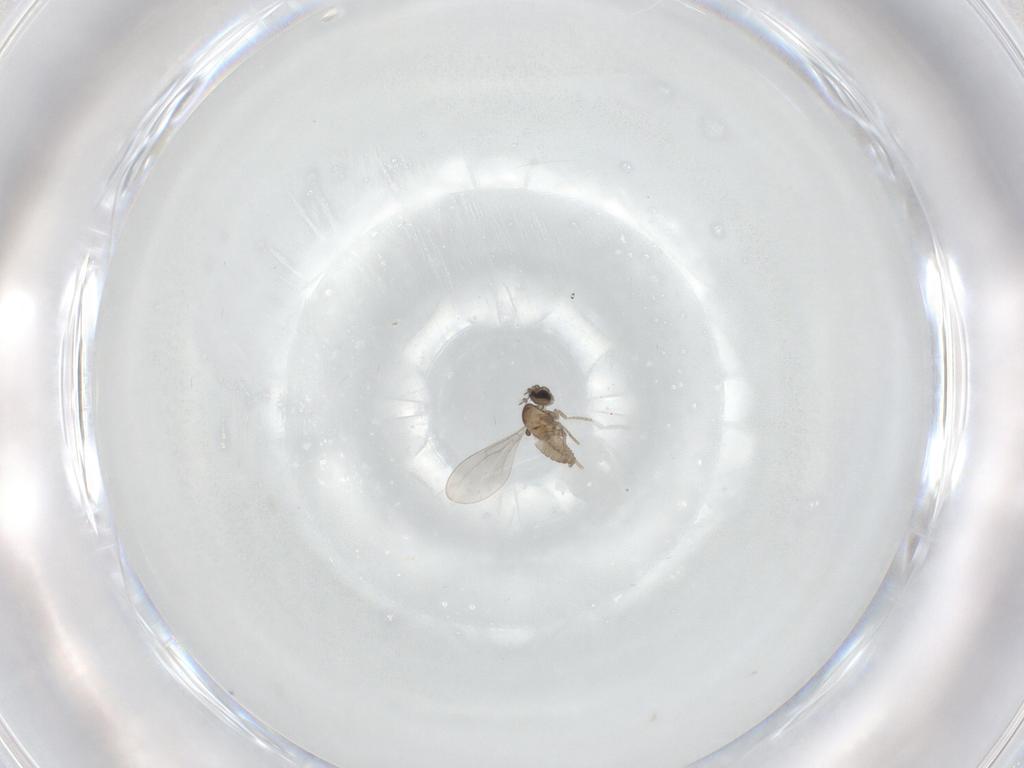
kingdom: Animalia
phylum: Arthropoda
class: Insecta
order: Diptera
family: Cecidomyiidae
